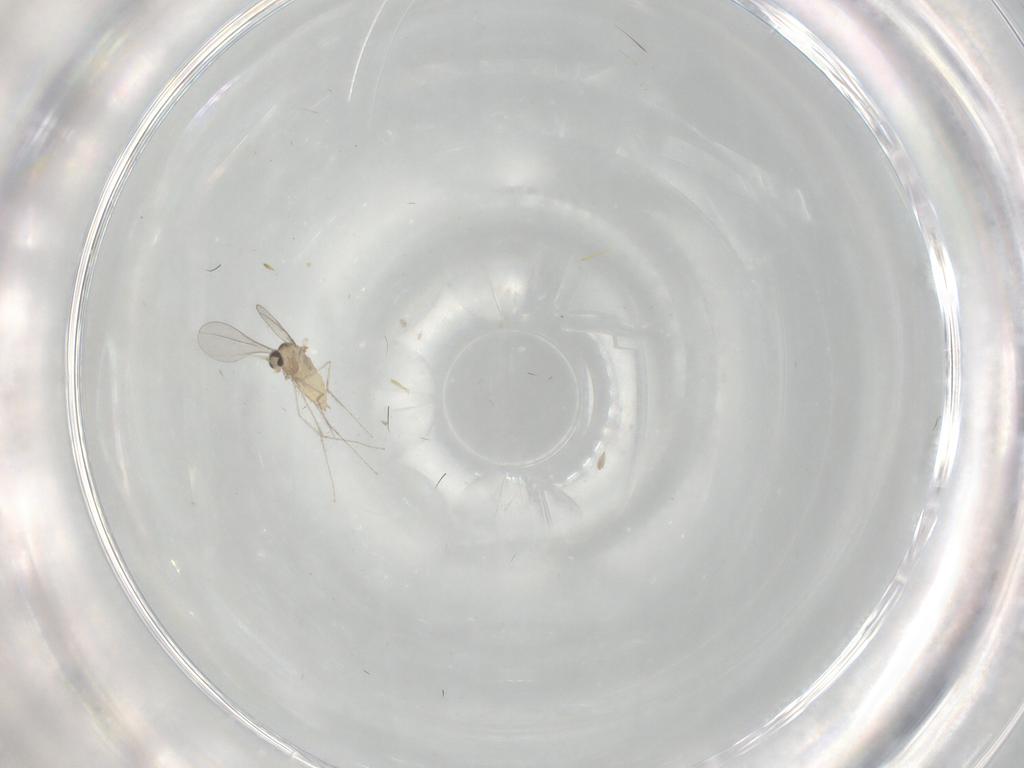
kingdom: Animalia
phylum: Arthropoda
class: Insecta
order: Diptera
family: Cecidomyiidae
